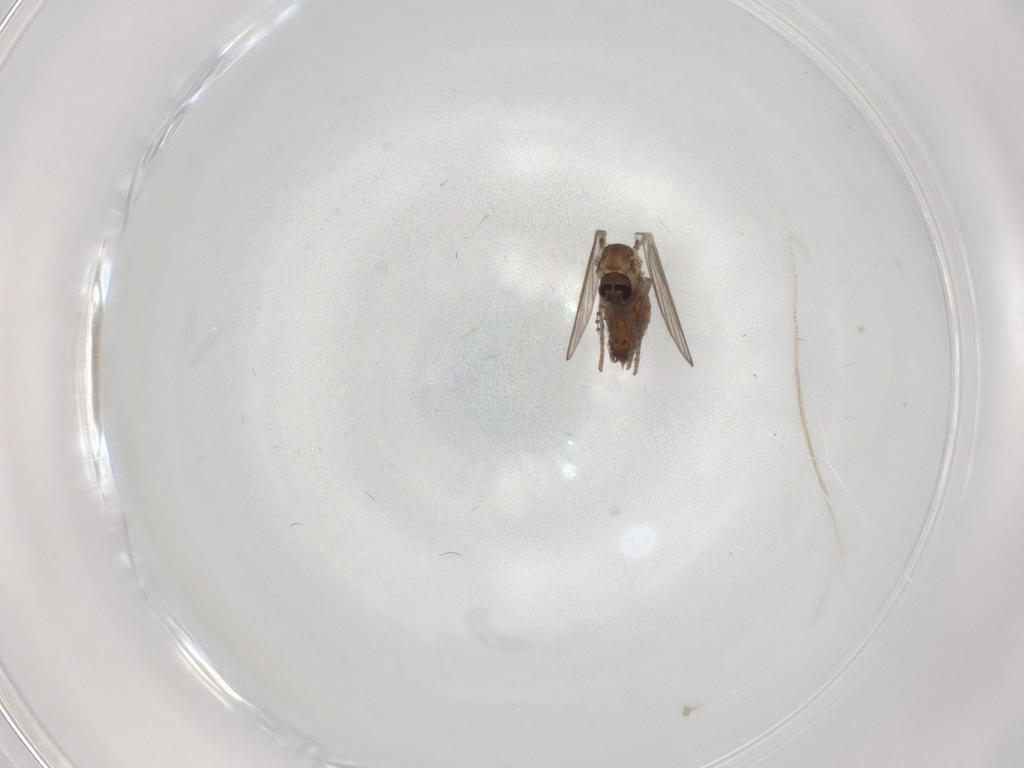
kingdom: Animalia
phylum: Arthropoda
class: Insecta
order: Diptera
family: Psychodidae
